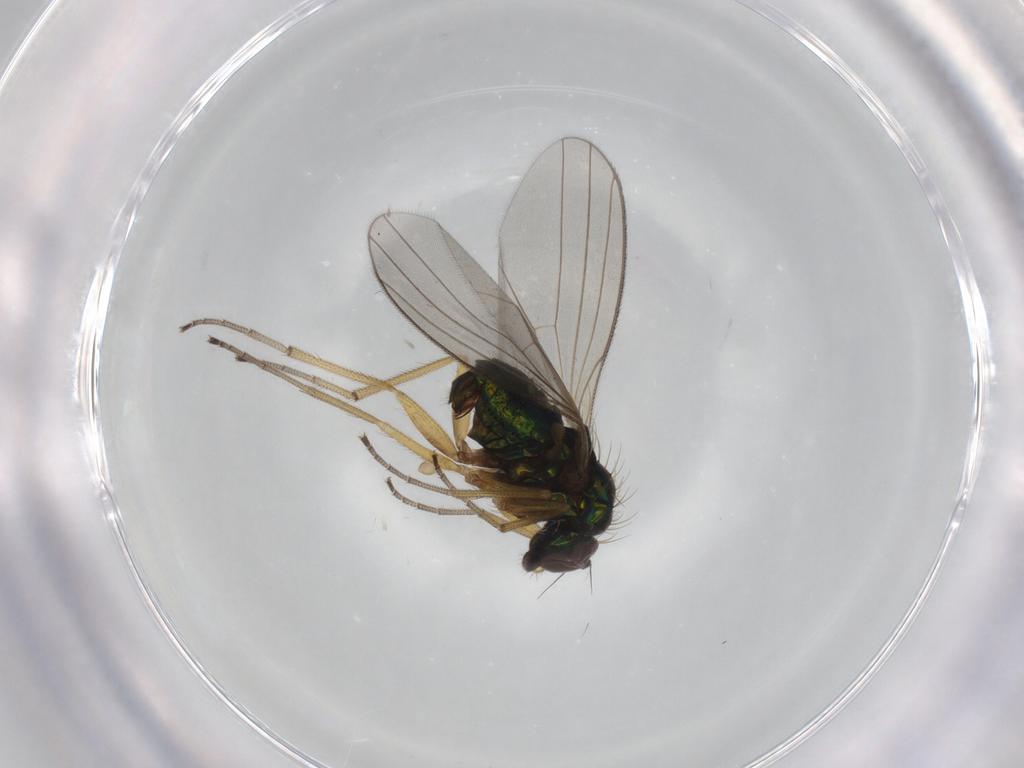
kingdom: Animalia
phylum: Arthropoda
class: Insecta
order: Diptera
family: Dolichopodidae
